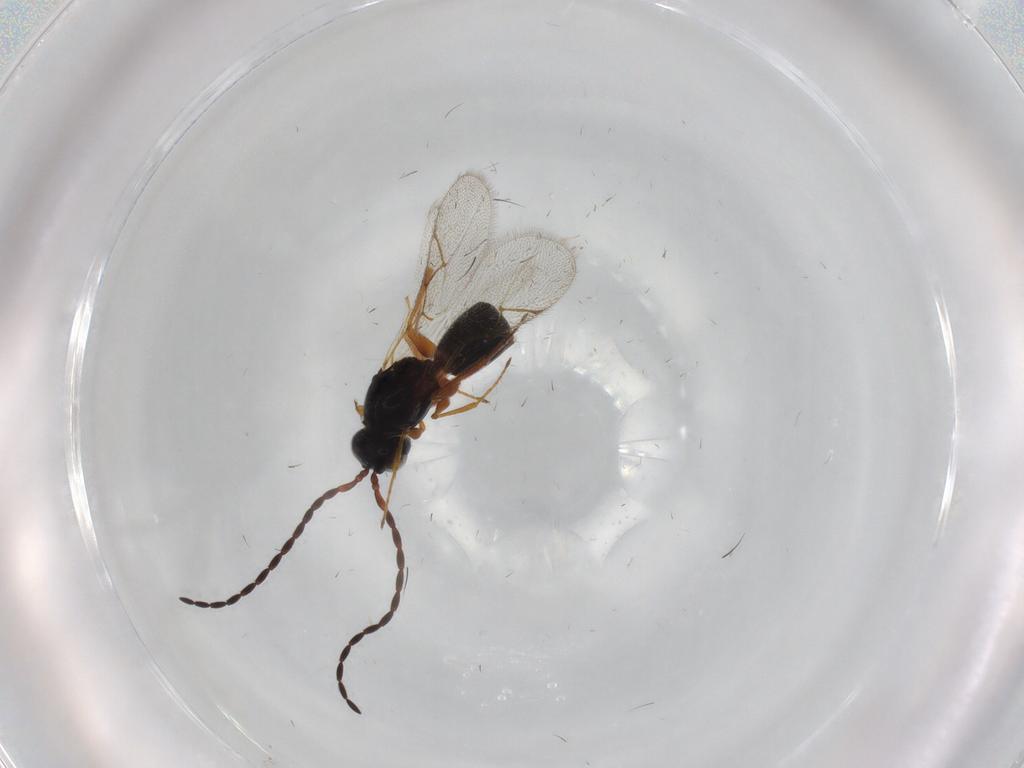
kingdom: Animalia
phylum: Arthropoda
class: Insecta
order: Hymenoptera
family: Figitidae
